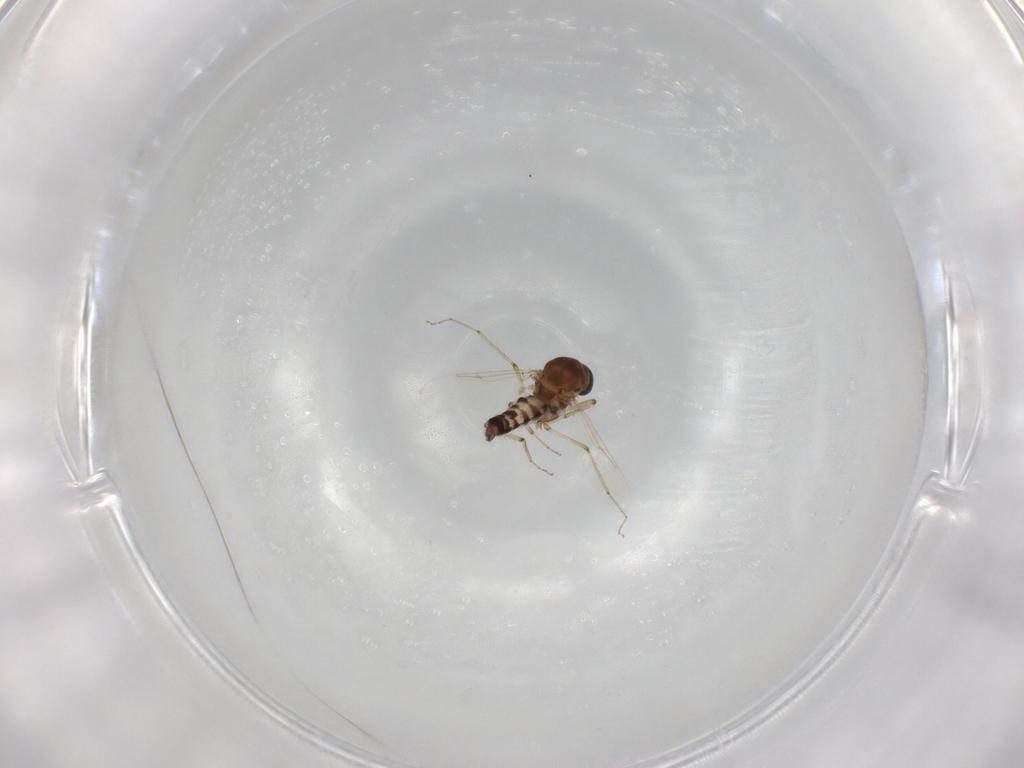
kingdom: Animalia
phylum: Arthropoda
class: Insecta
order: Diptera
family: Ceratopogonidae
